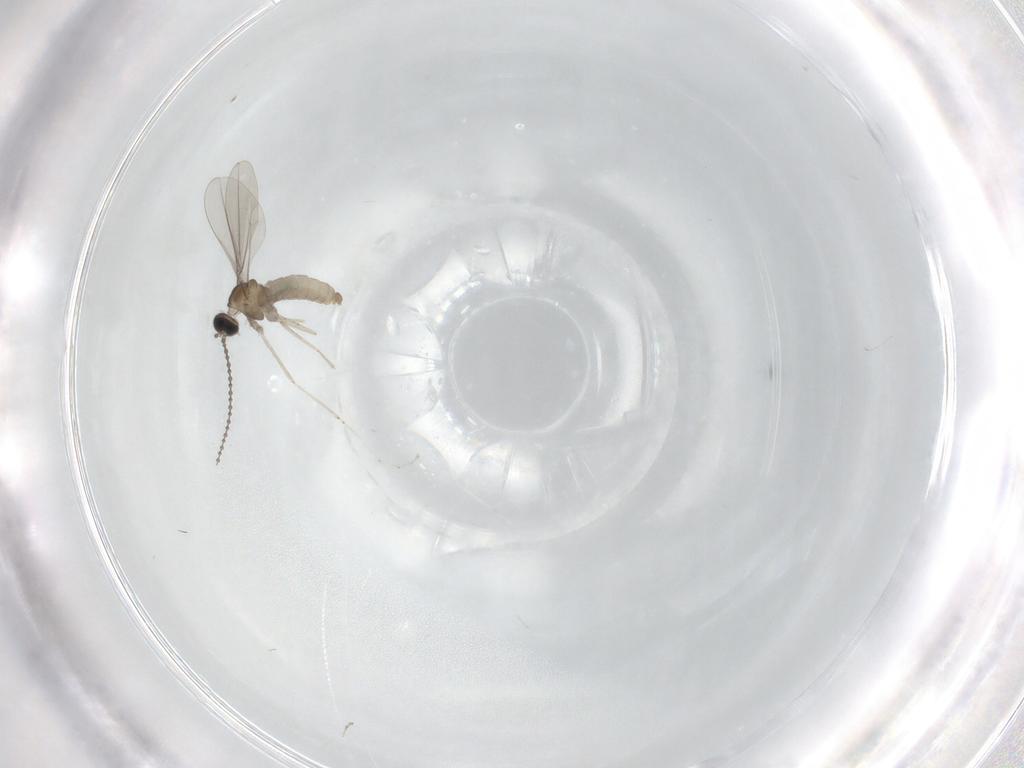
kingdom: Animalia
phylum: Arthropoda
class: Insecta
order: Diptera
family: Cecidomyiidae
